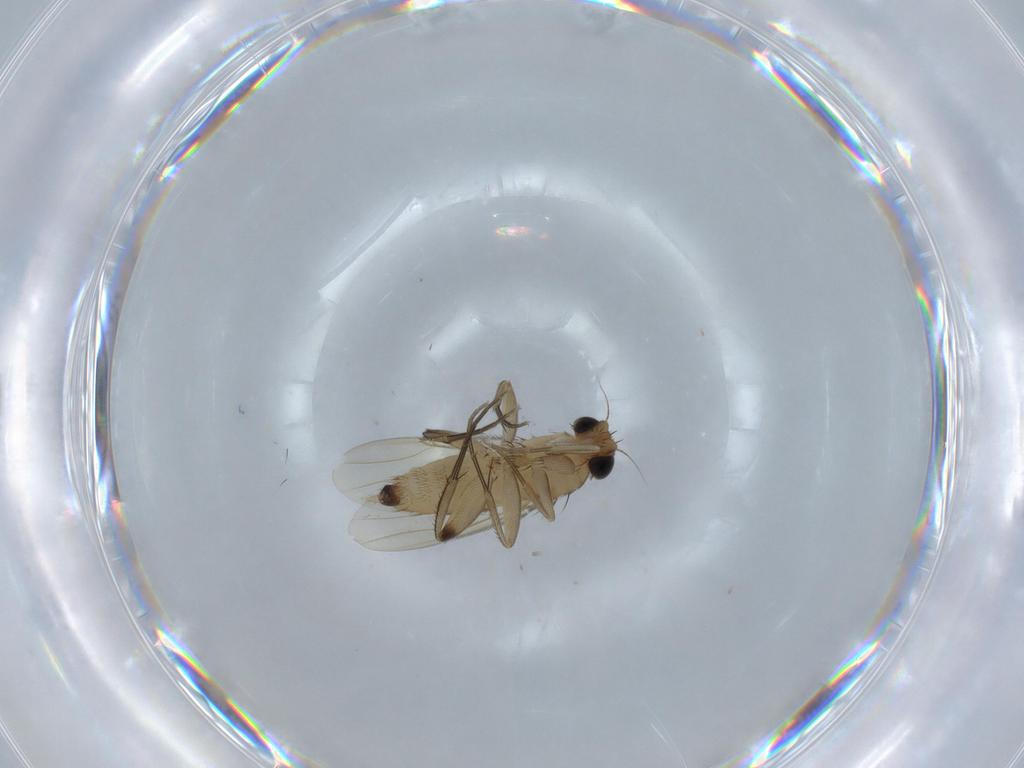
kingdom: Animalia
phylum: Arthropoda
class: Insecta
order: Diptera
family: Phoridae
